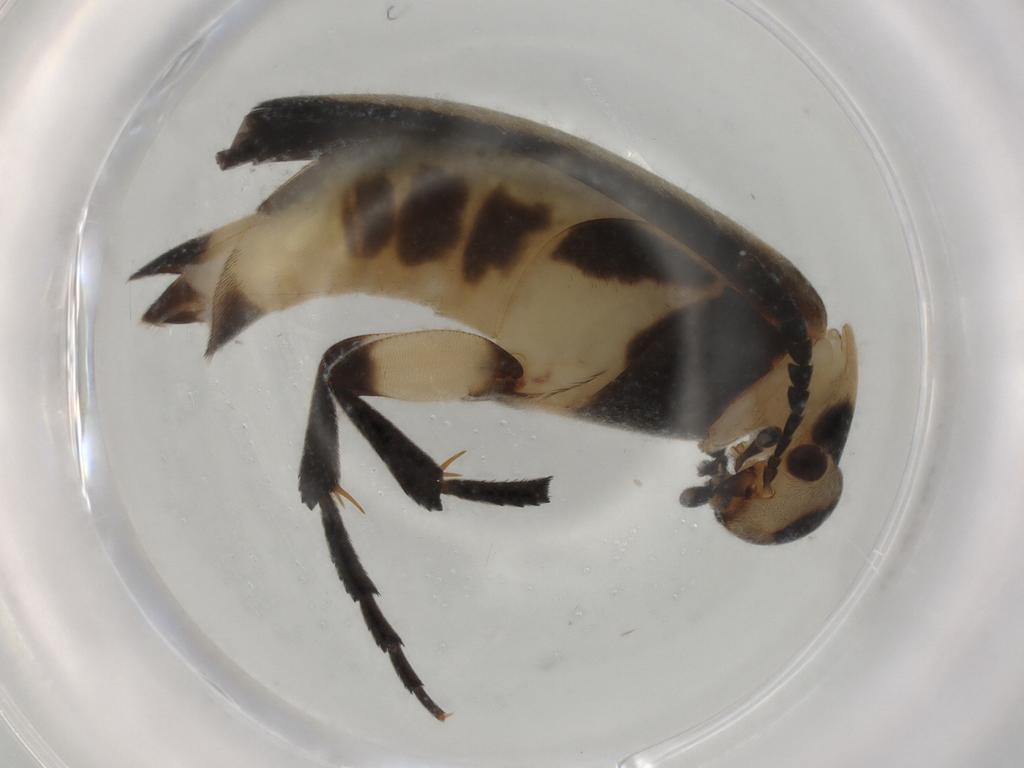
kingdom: Animalia
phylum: Arthropoda
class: Insecta
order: Coleoptera
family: Mordellidae
